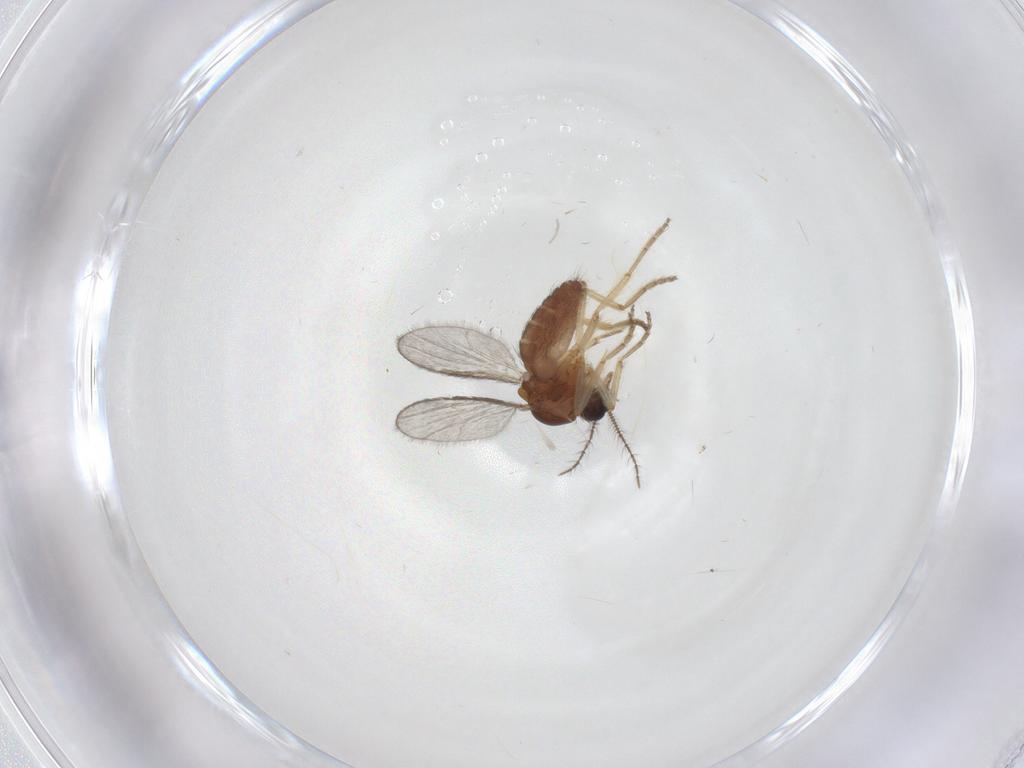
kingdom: Animalia
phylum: Arthropoda
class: Insecta
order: Diptera
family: Ceratopogonidae
